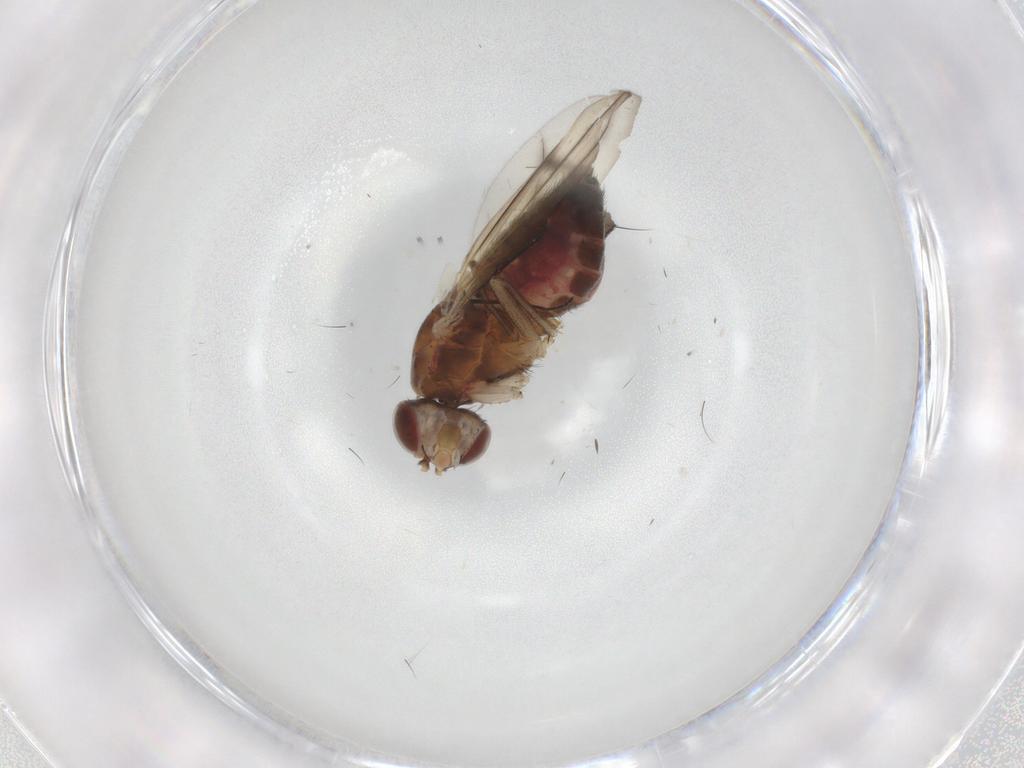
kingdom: Animalia
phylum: Arthropoda
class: Insecta
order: Diptera
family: Heleomyzidae
